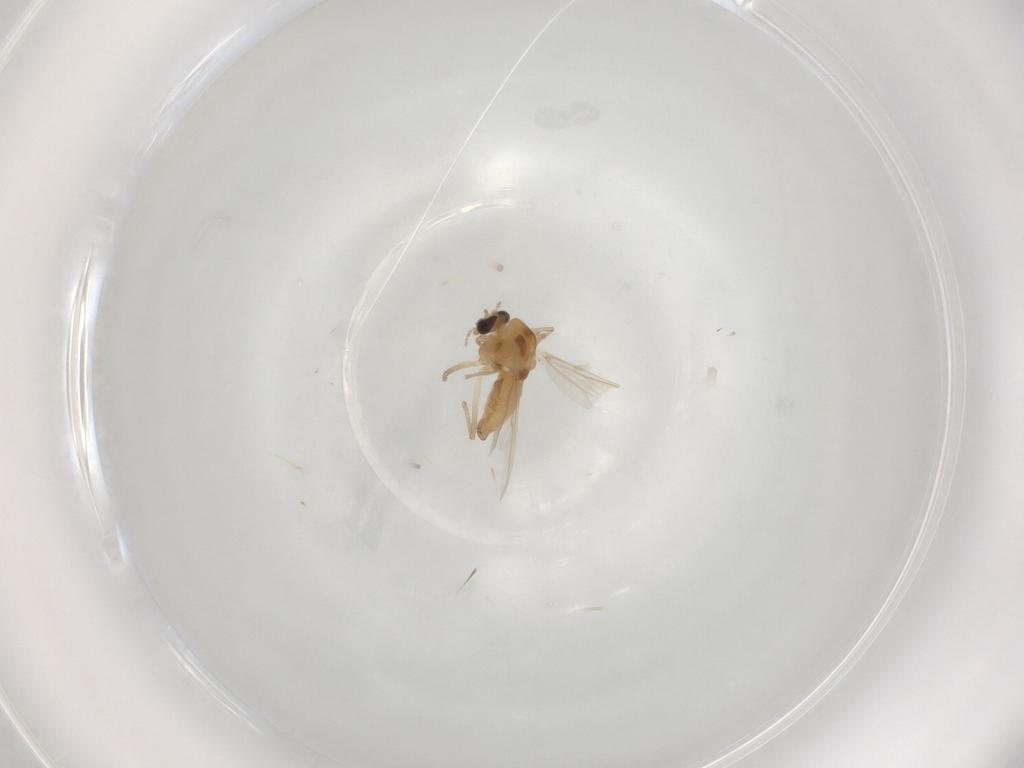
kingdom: Animalia
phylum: Arthropoda
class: Insecta
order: Diptera
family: Chironomidae
